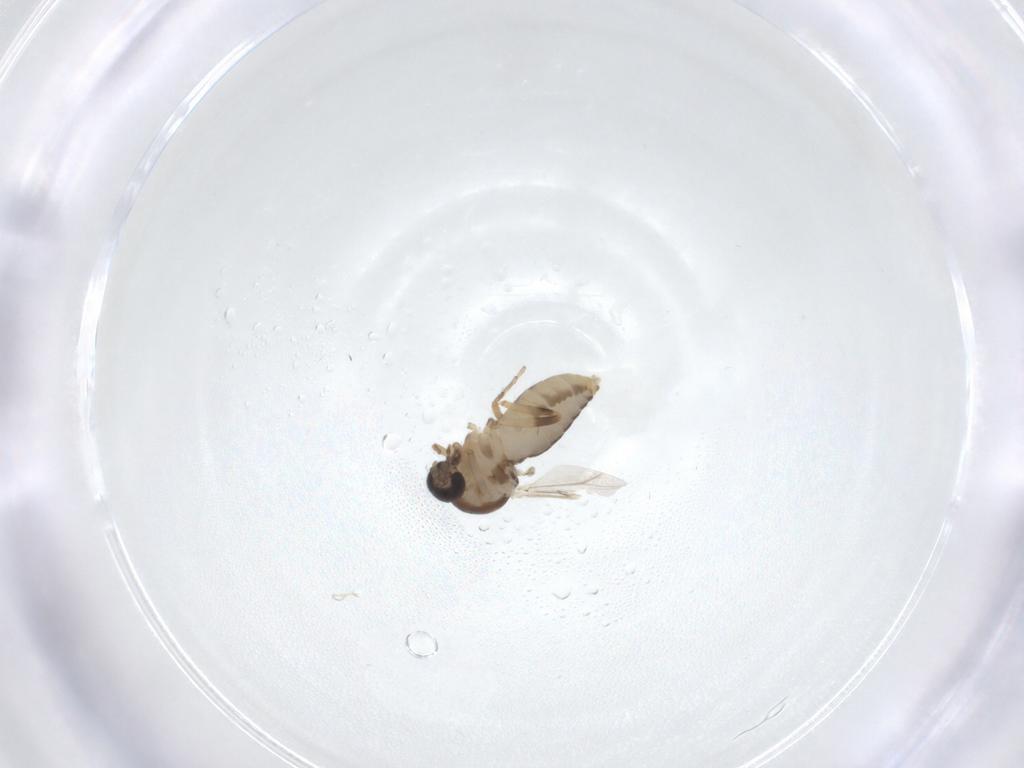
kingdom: Animalia
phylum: Arthropoda
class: Insecta
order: Diptera
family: Ceratopogonidae
